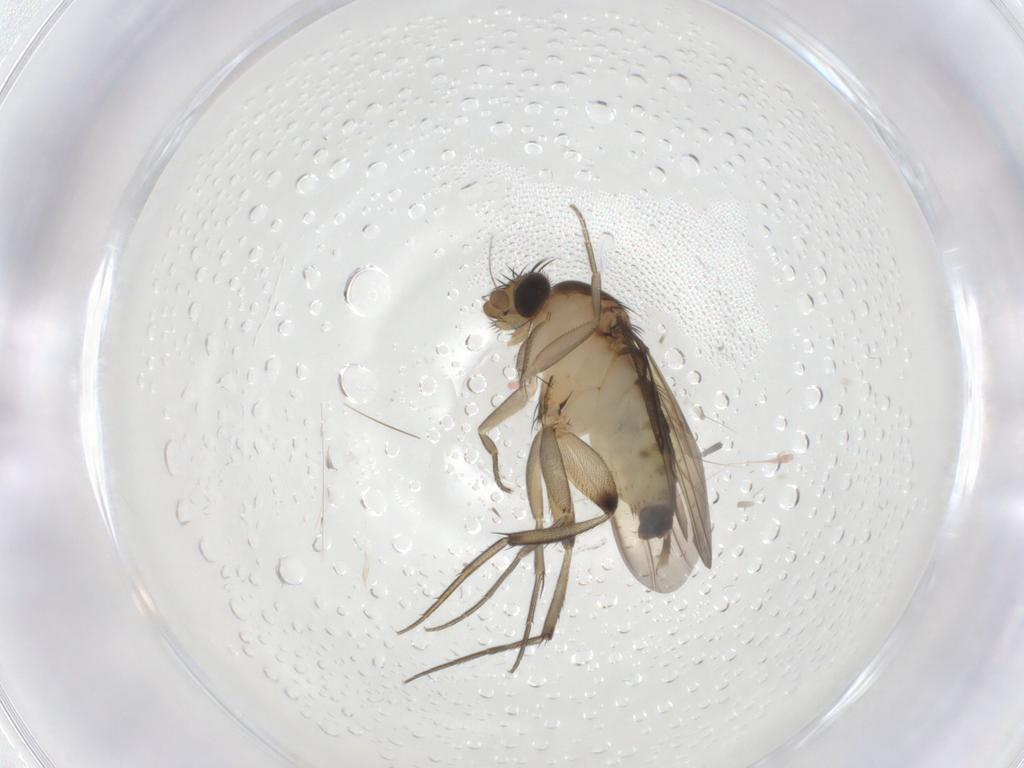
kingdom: Animalia
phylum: Arthropoda
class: Insecta
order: Diptera
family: Phoridae
